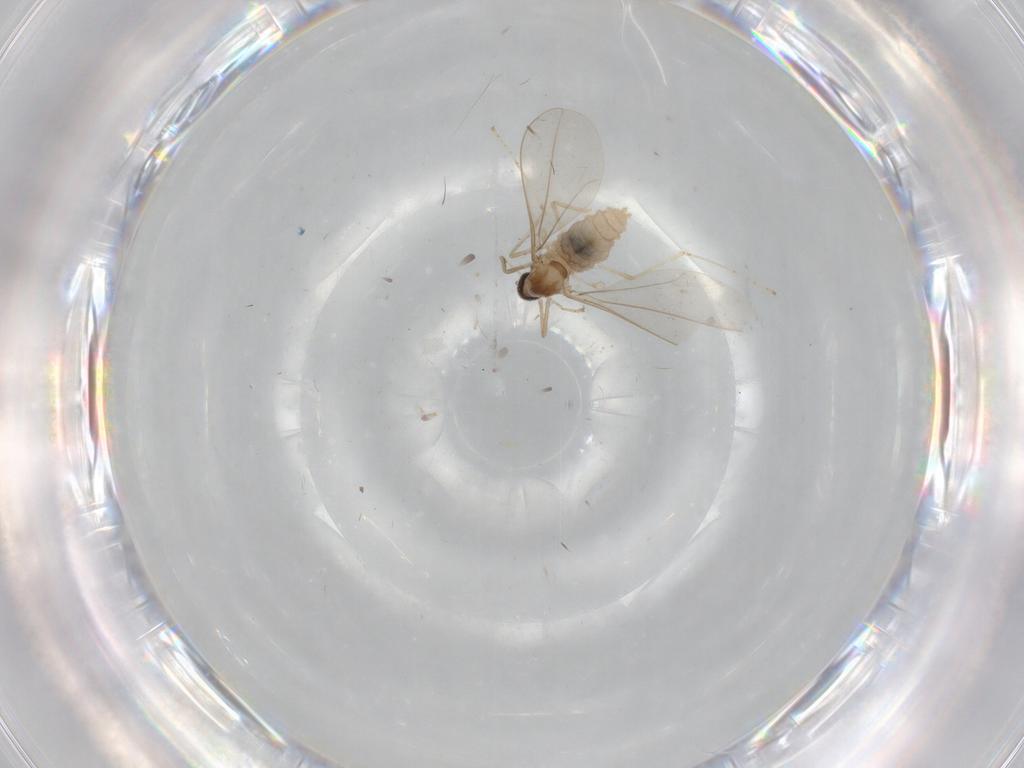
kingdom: Animalia
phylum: Arthropoda
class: Insecta
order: Diptera
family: Cecidomyiidae
